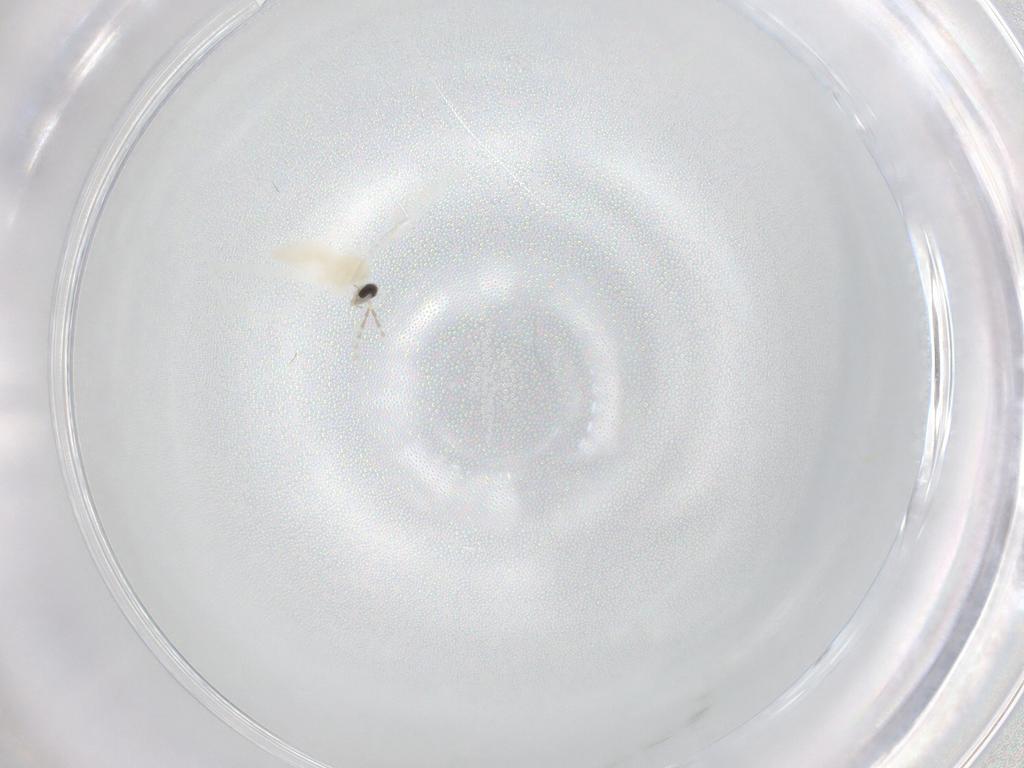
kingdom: Animalia
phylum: Arthropoda
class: Insecta
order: Diptera
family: Cecidomyiidae
